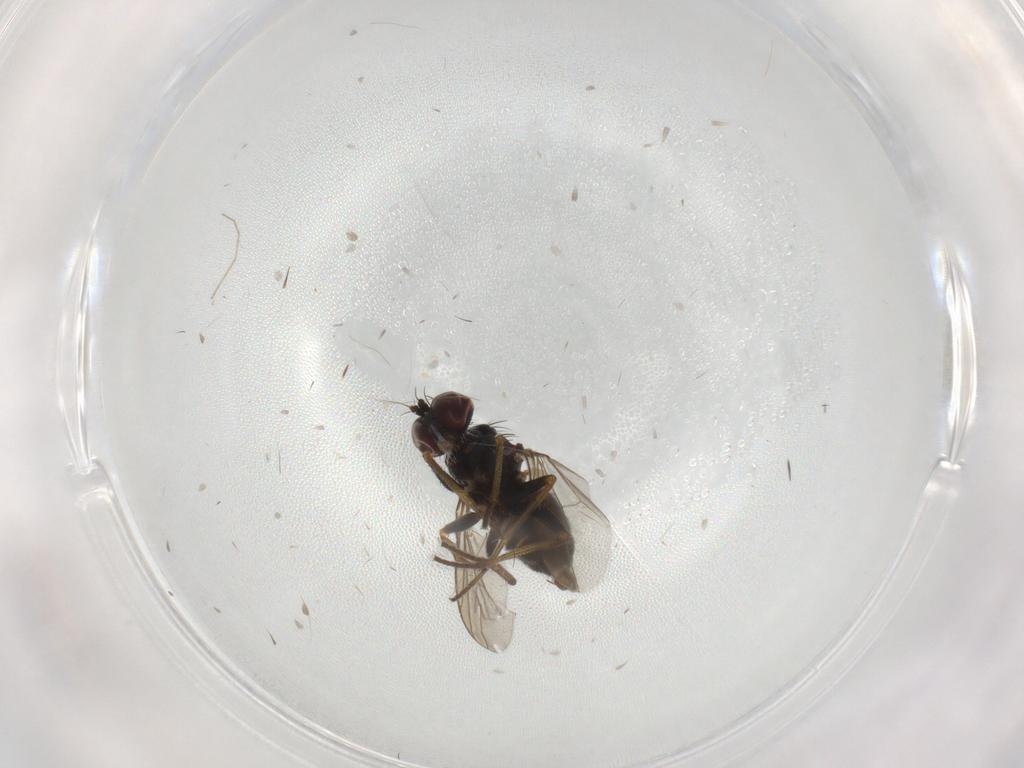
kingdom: Animalia
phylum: Arthropoda
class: Insecta
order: Diptera
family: Dolichopodidae
